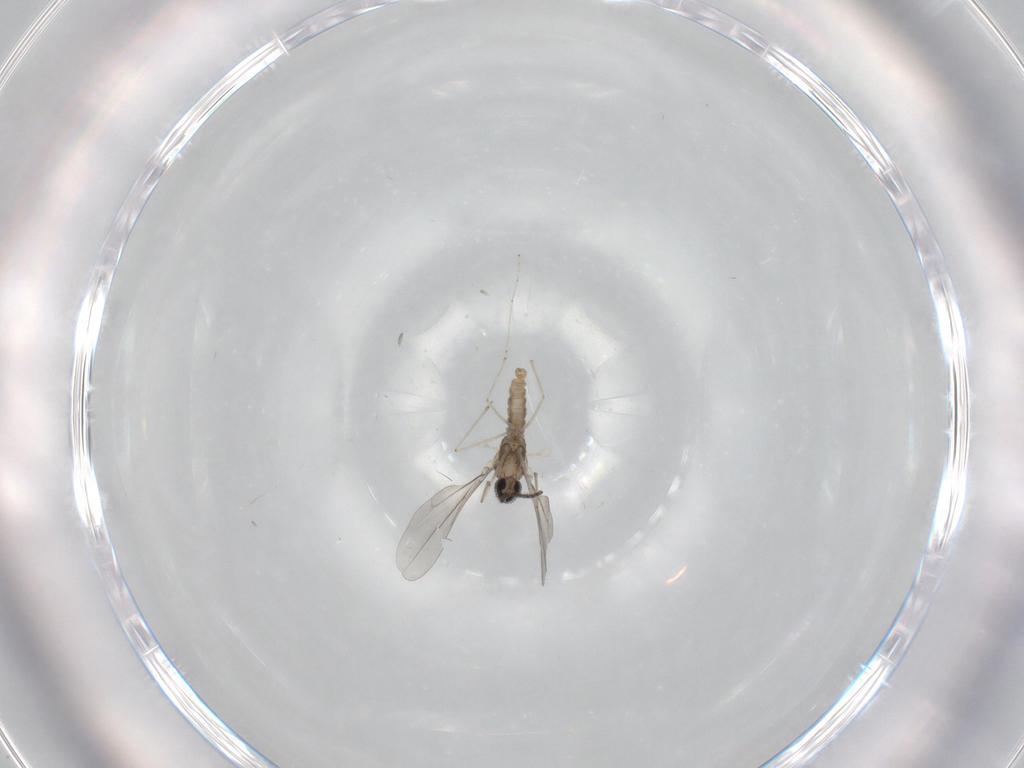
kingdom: Animalia
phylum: Arthropoda
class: Insecta
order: Diptera
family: Cecidomyiidae
